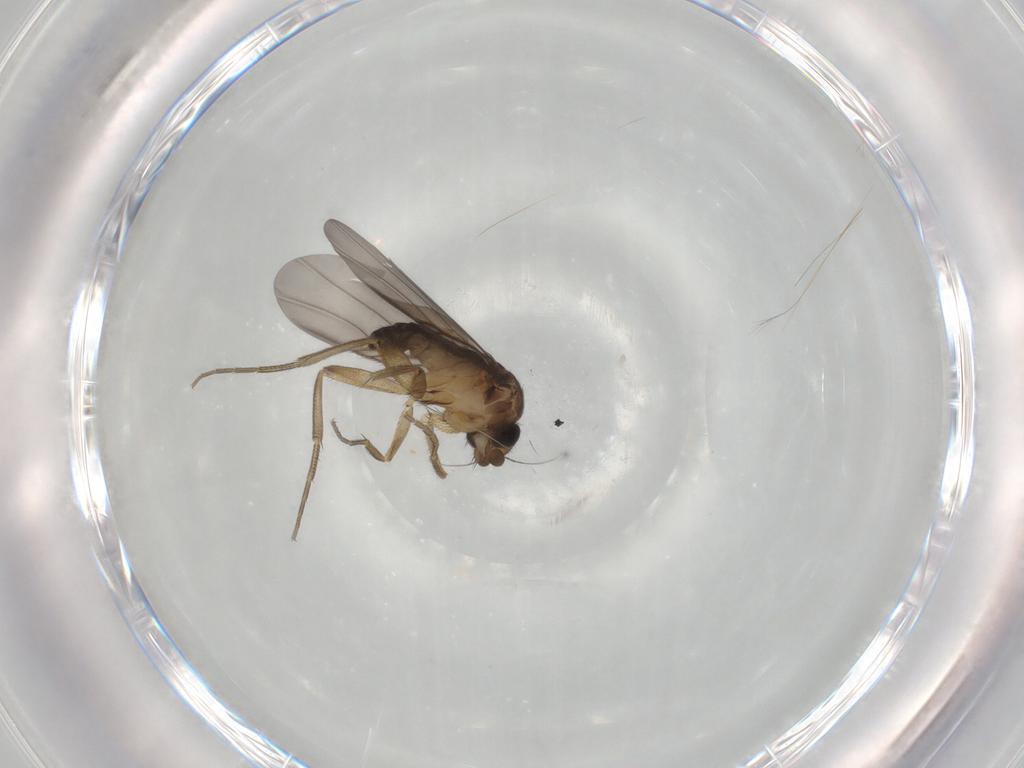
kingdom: Animalia
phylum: Arthropoda
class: Insecta
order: Diptera
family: Phoridae
